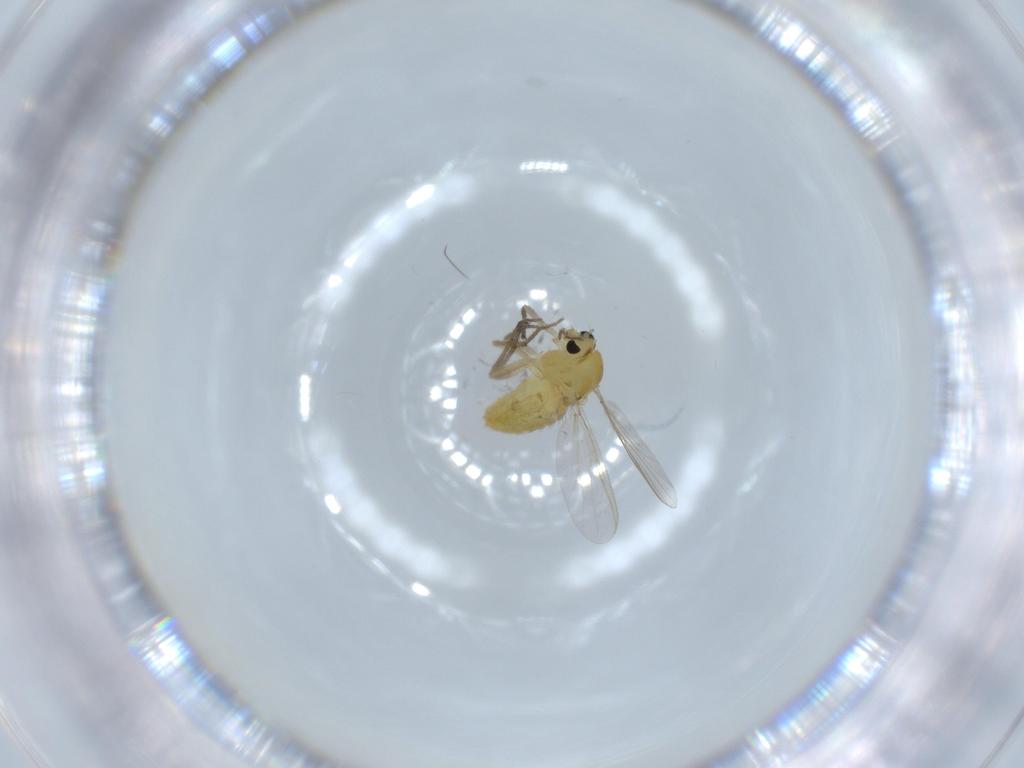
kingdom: Animalia
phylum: Arthropoda
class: Insecta
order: Diptera
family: Chironomidae
